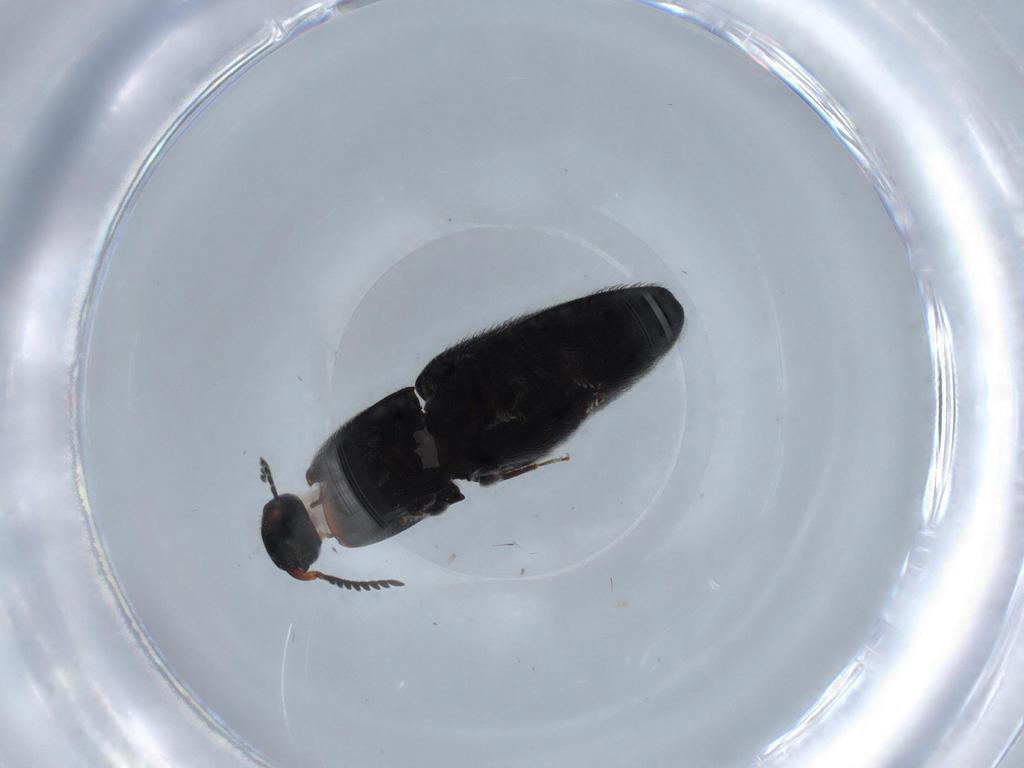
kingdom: Animalia
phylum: Arthropoda
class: Insecta
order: Coleoptera
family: Elateridae
